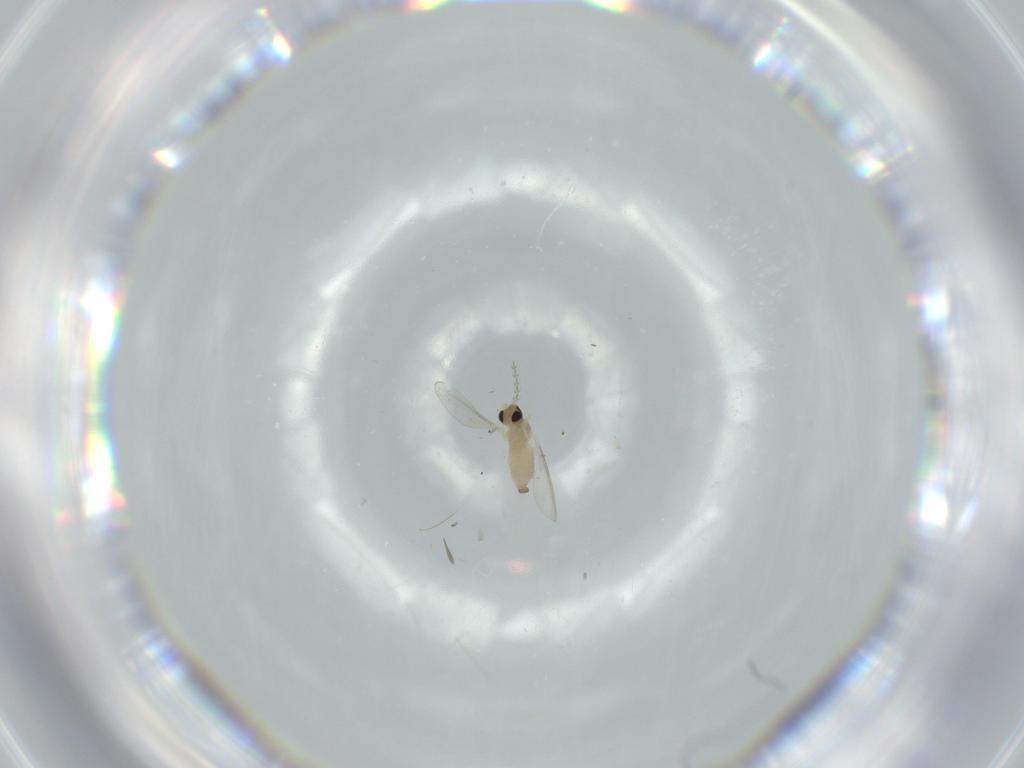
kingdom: Animalia
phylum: Arthropoda
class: Insecta
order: Diptera
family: Cecidomyiidae
